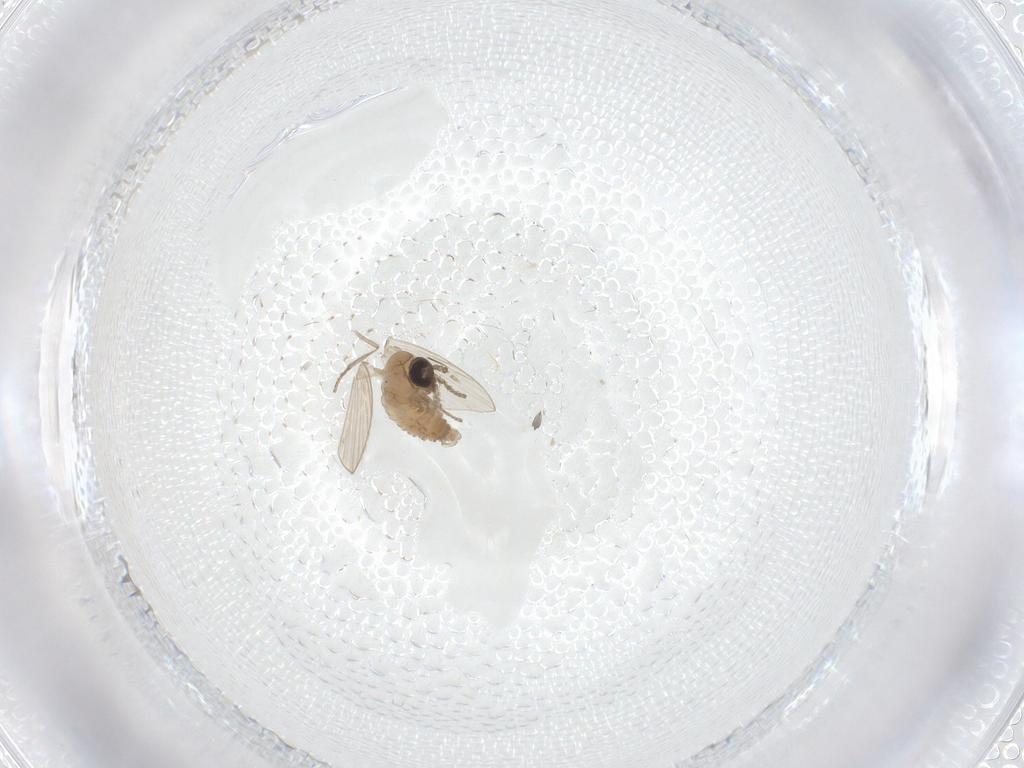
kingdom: Animalia
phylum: Arthropoda
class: Insecta
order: Diptera
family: Psychodidae
